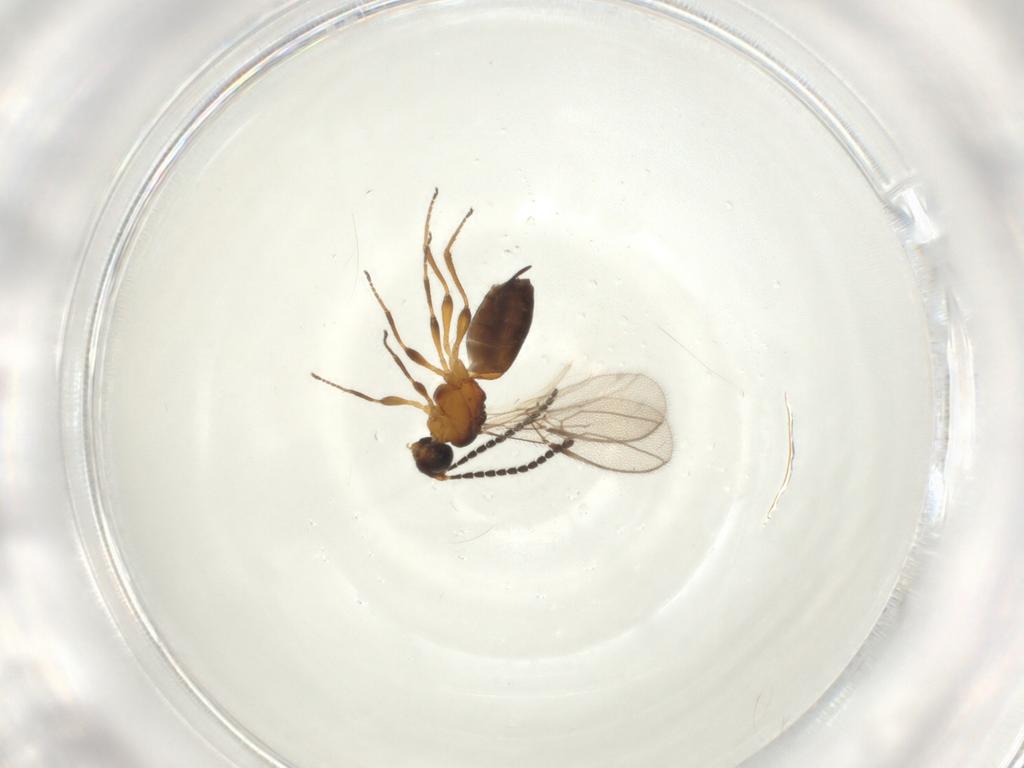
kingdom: Animalia
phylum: Arthropoda
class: Insecta
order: Hymenoptera
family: Braconidae
